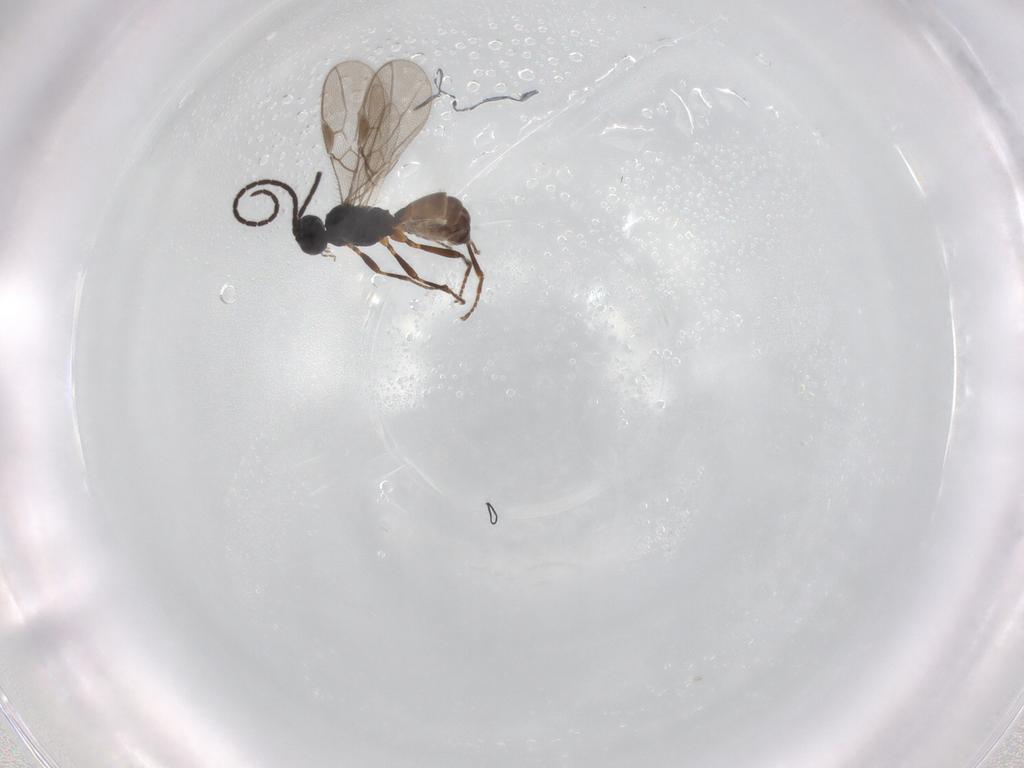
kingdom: Animalia
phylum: Arthropoda
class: Insecta
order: Hymenoptera
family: Braconidae
